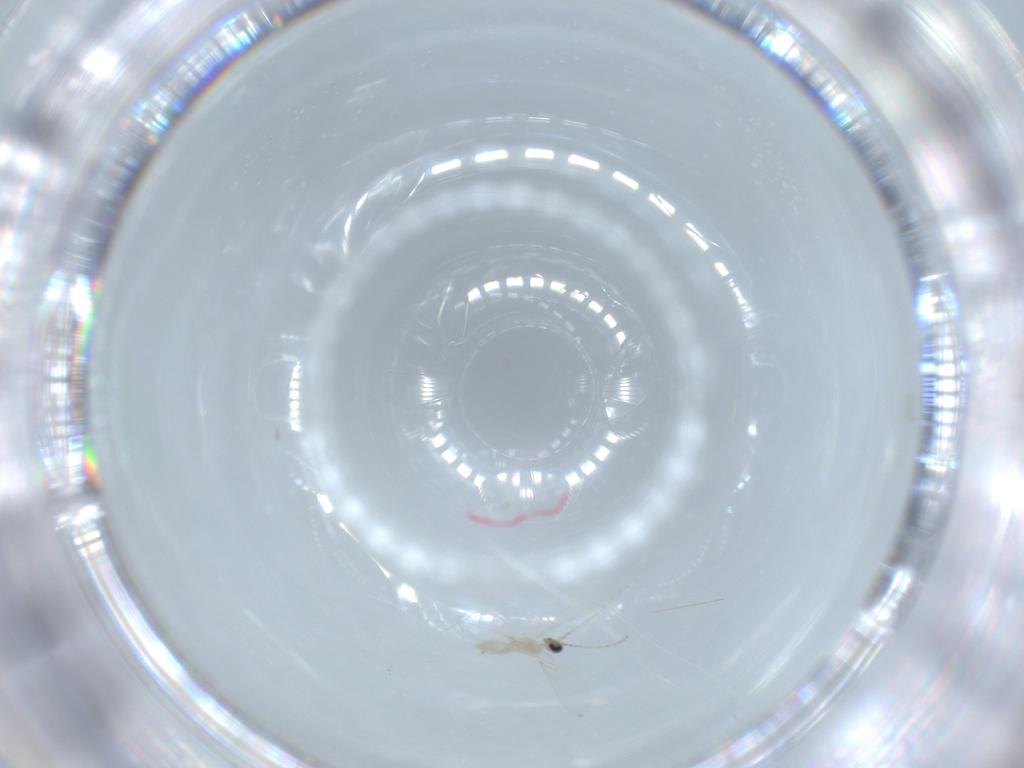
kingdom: Animalia
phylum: Arthropoda
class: Insecta
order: Diptera
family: Cecidomyiidae
